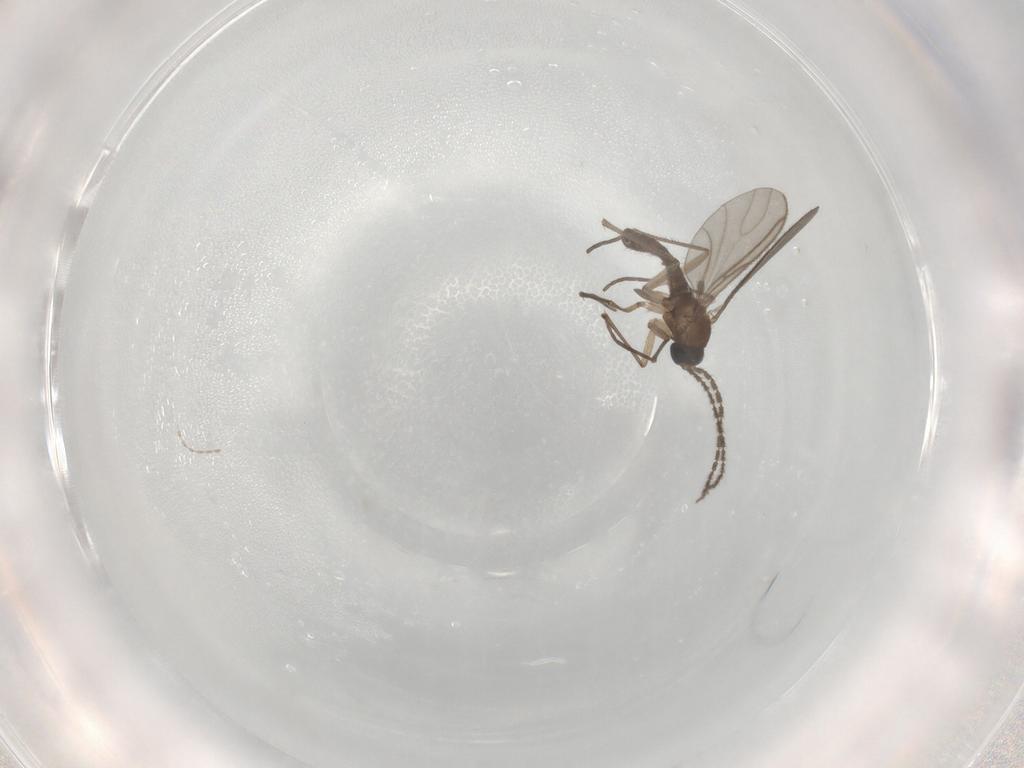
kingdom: Animalia
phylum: Arthropoda
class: Insecta
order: Diptera
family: Sciaridae
